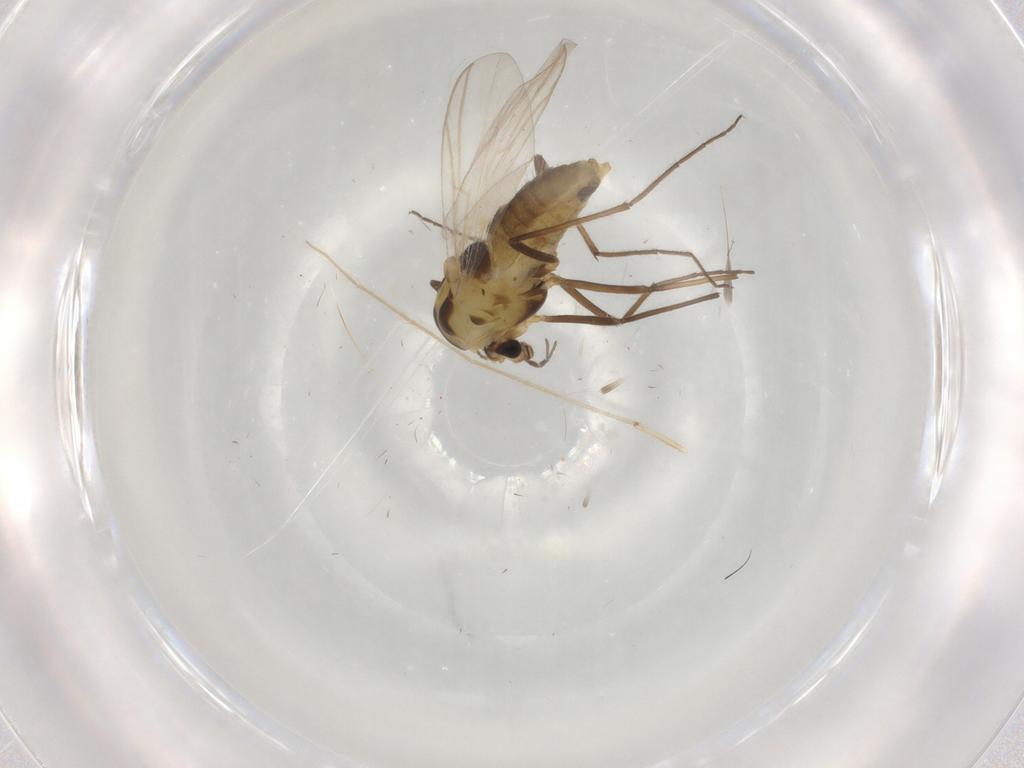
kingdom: Animalia
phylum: Arthropoda
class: Insecta
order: Diptera
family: Chironomidae
